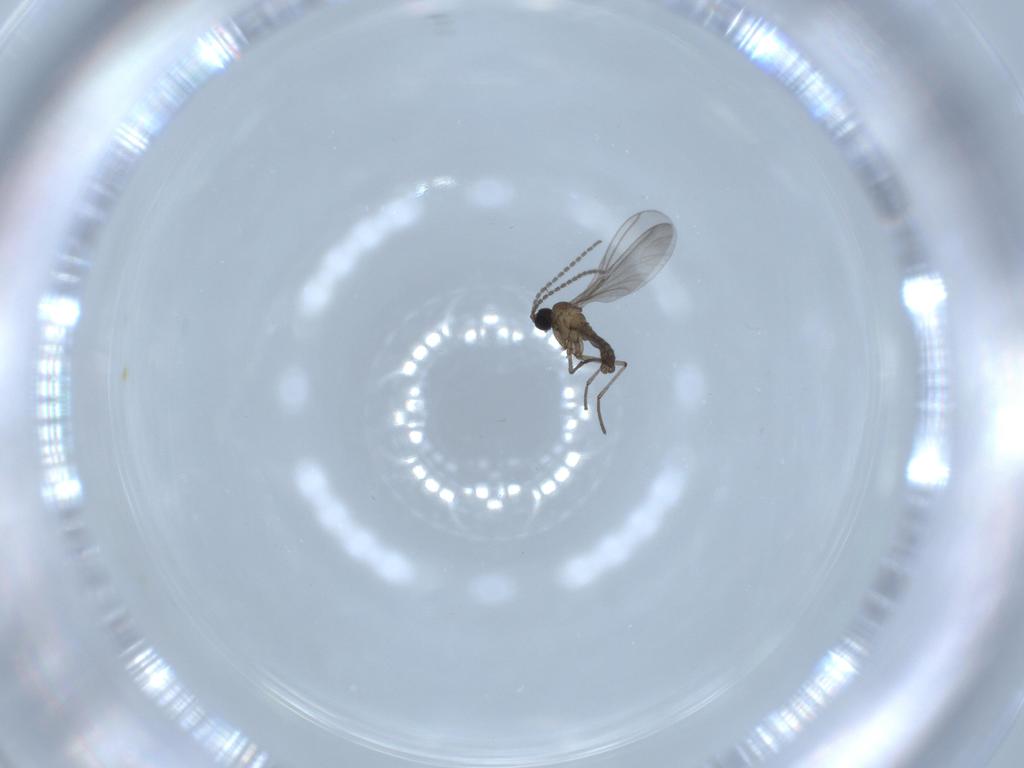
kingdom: Animalia
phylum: Arthropoda
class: Insecta
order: Diptera
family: Sciaridae
